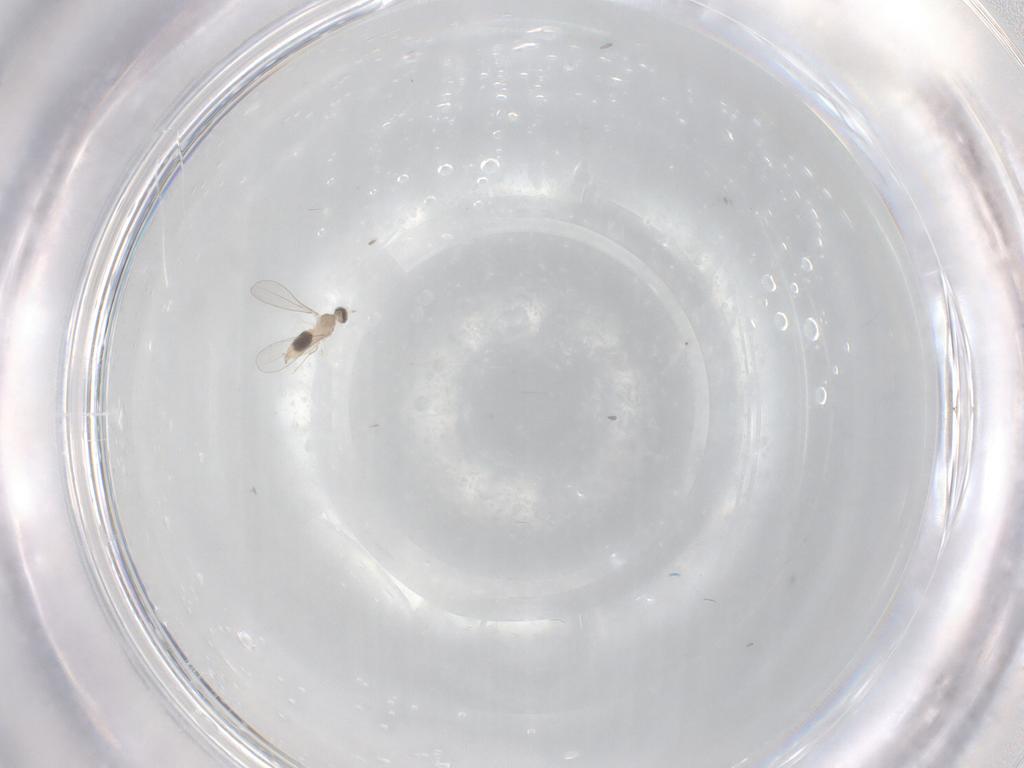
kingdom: Animalia
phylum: Arthropoda
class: Insecta
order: Diptera
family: Cecidomyiidae
